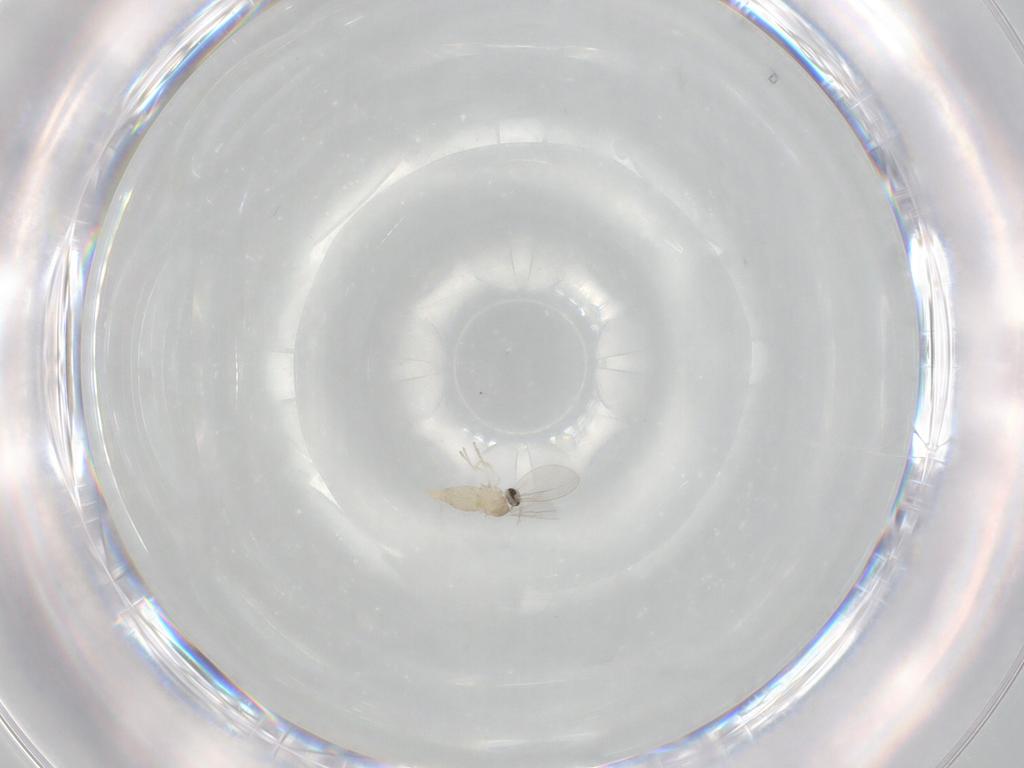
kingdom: Animalia
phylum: Arthropoda
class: Insecta
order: Diptera
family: Cecidomyiidae
